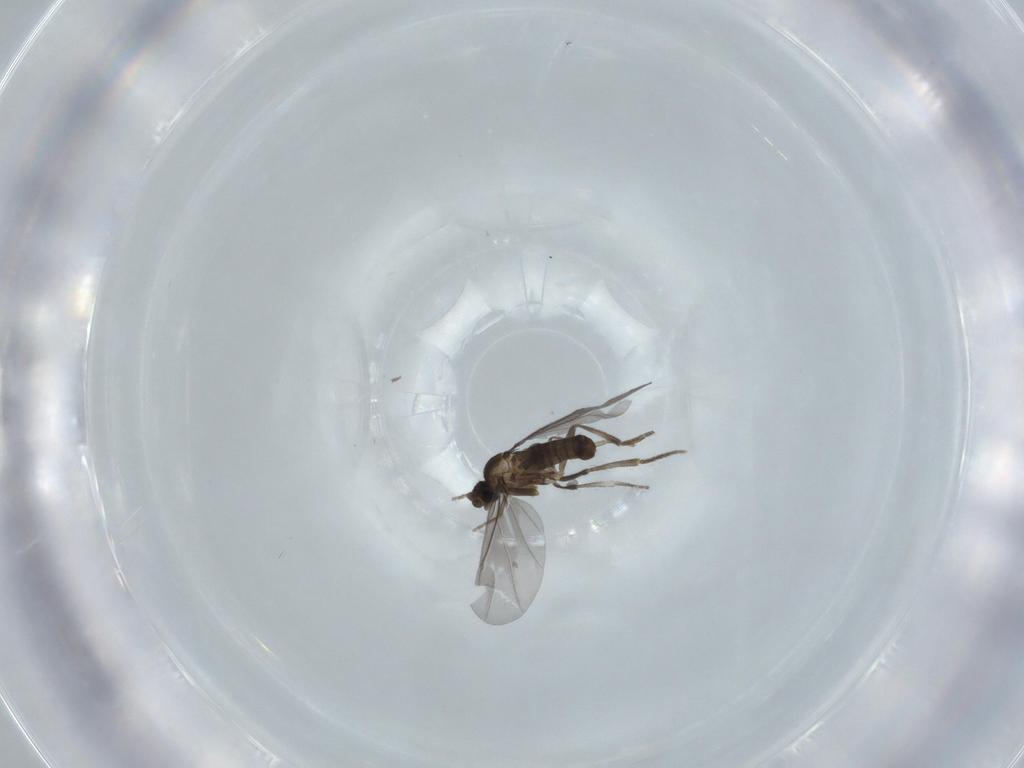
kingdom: Animalia
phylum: Arthropoda
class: Insecta
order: Diptera
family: Phoridae
